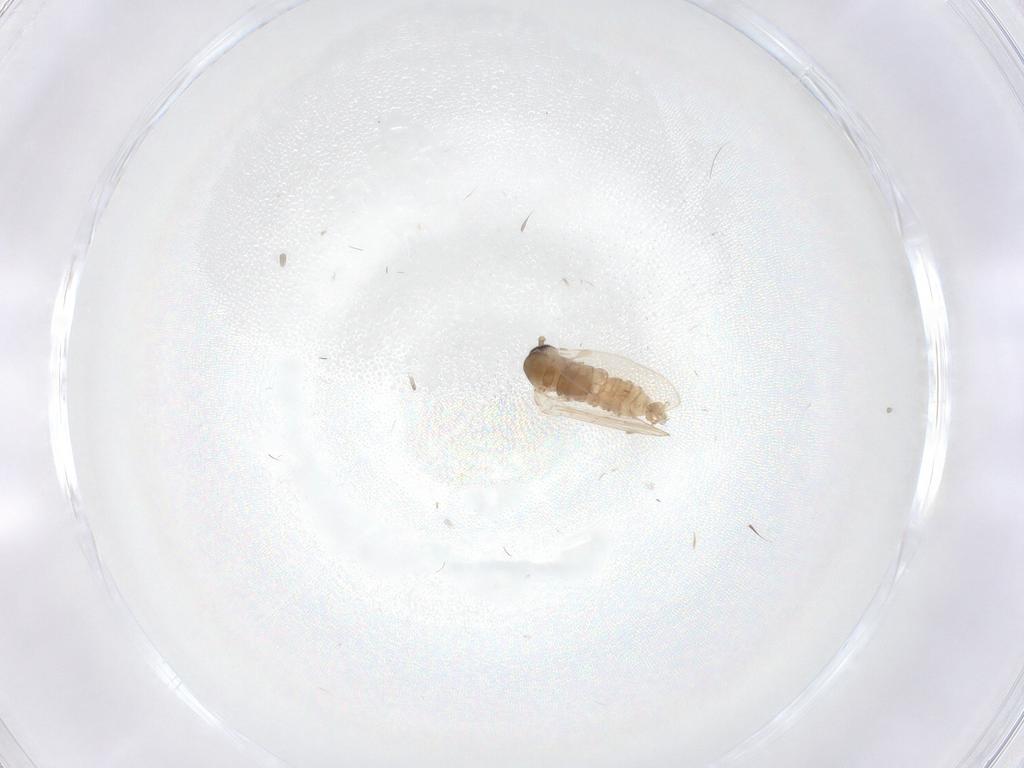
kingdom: Animalia
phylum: Arthropoda
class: Insecta
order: Diptera
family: Psychodidae
